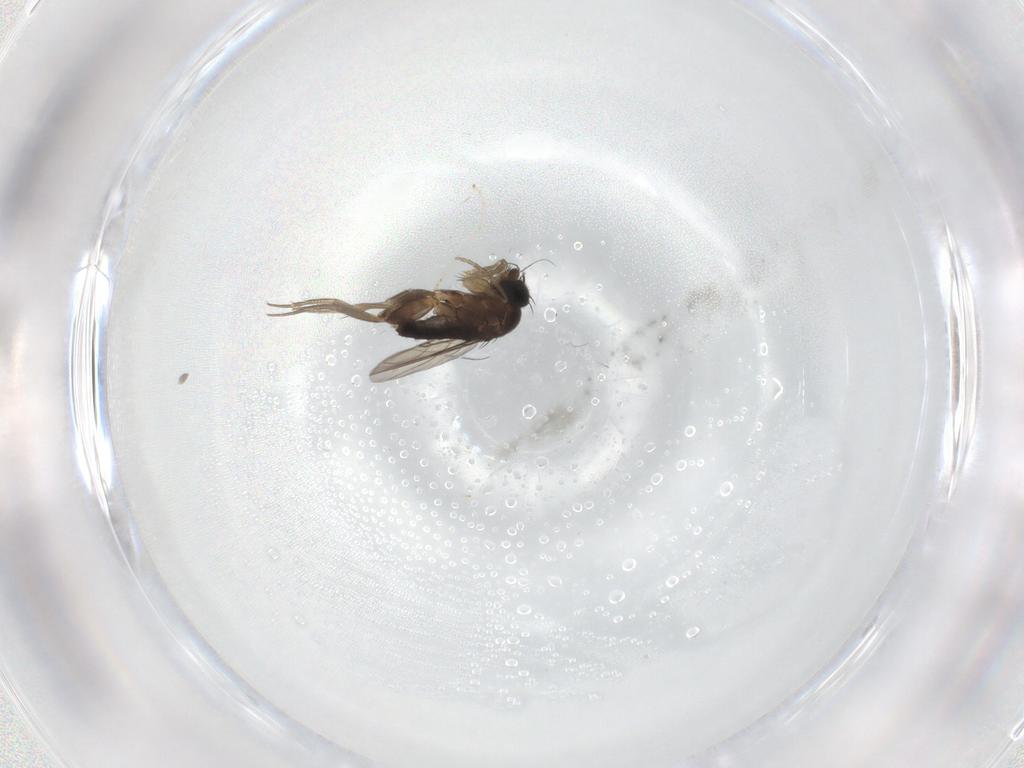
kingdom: Animalia
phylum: Arthropoda
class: Insecta
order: Diptera
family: Phoridae
